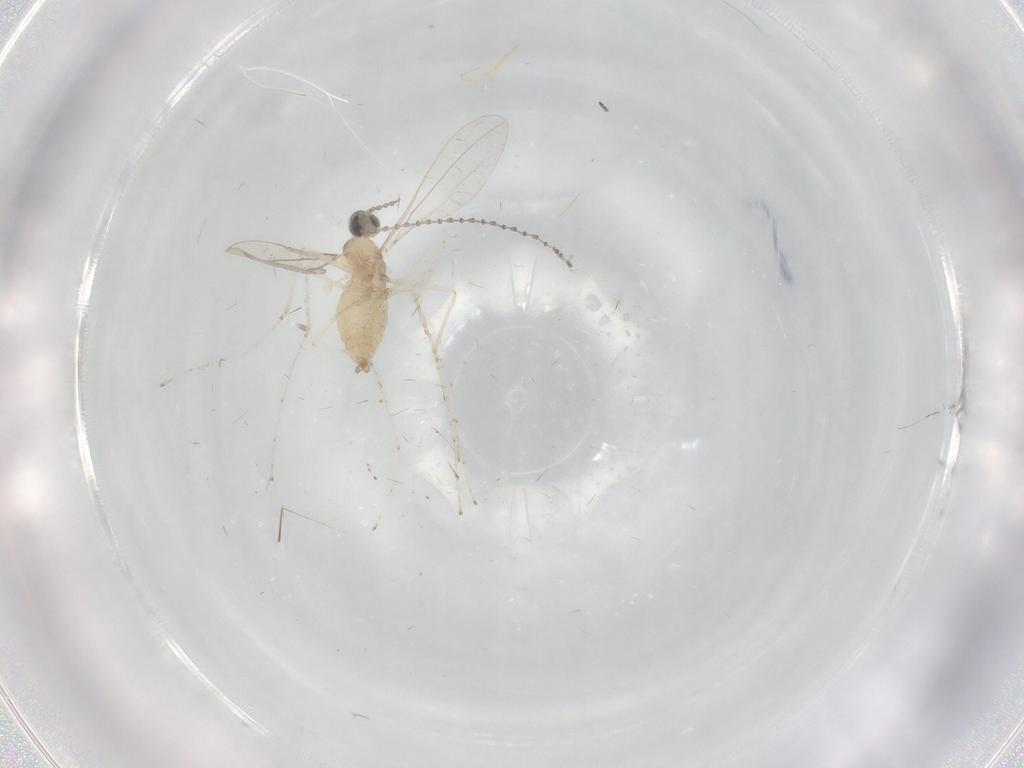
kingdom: Animalia
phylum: Arthropoda
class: Insecta
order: Diptera
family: Cecidomyiidae
